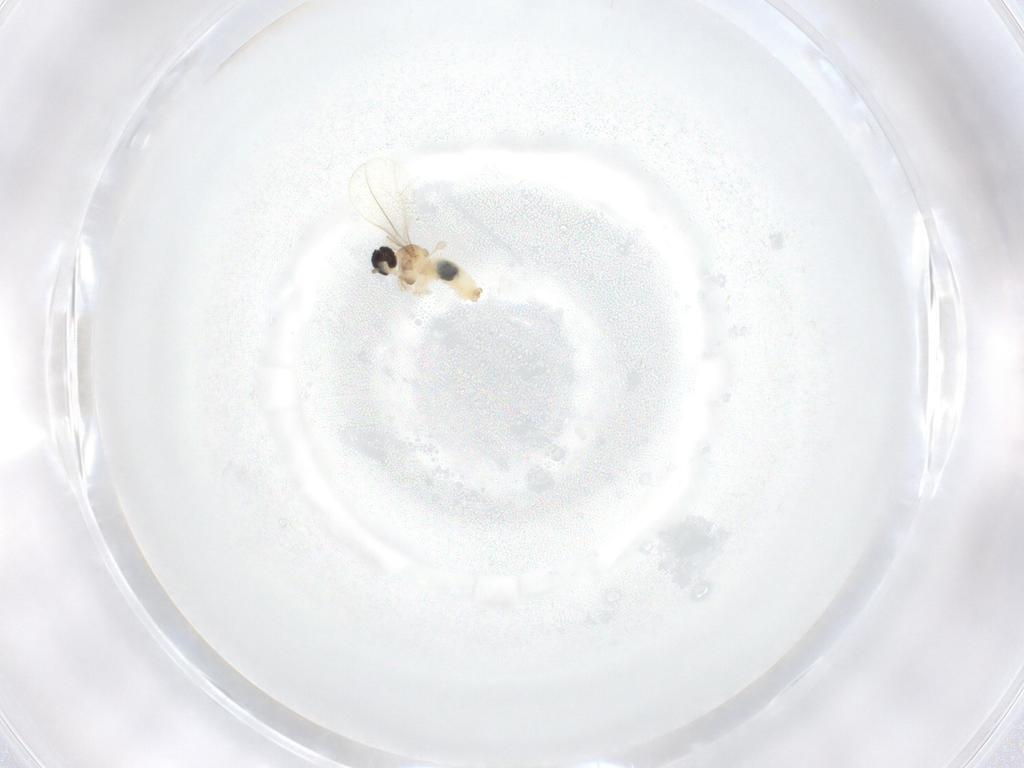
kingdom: Animalia
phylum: Arthropoda
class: Insecta
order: Diptera
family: Cecidomyiidae
